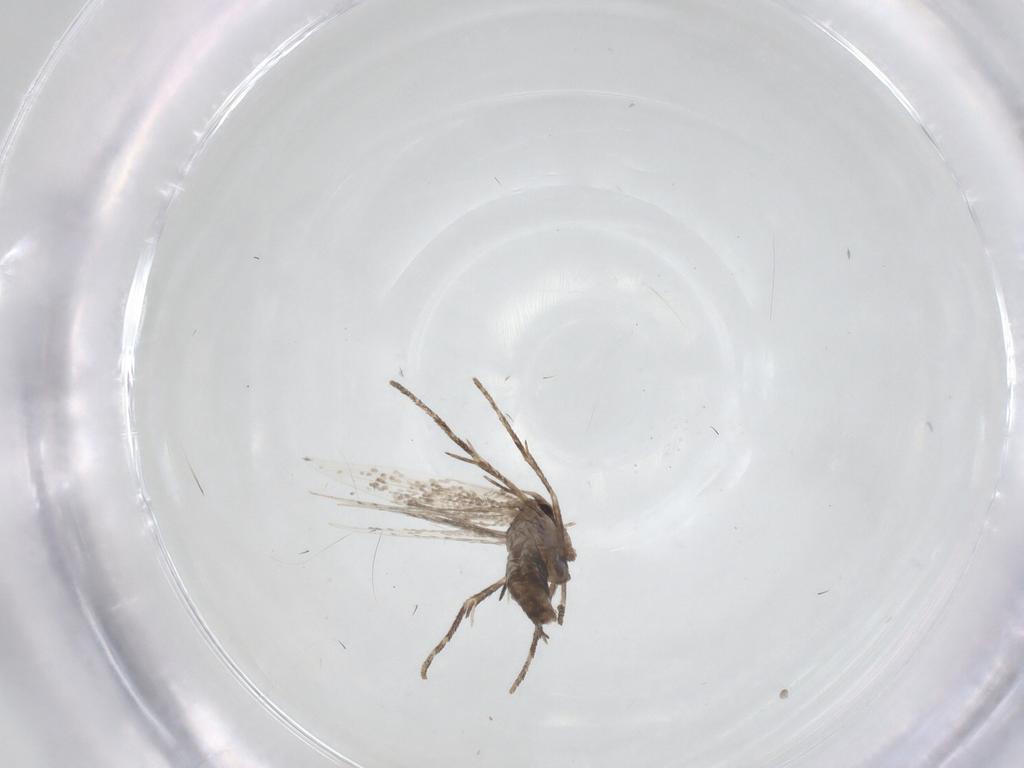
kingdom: Animalia
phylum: Arthropoda
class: Insecta
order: Lepidoptera
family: Gracillariidae
